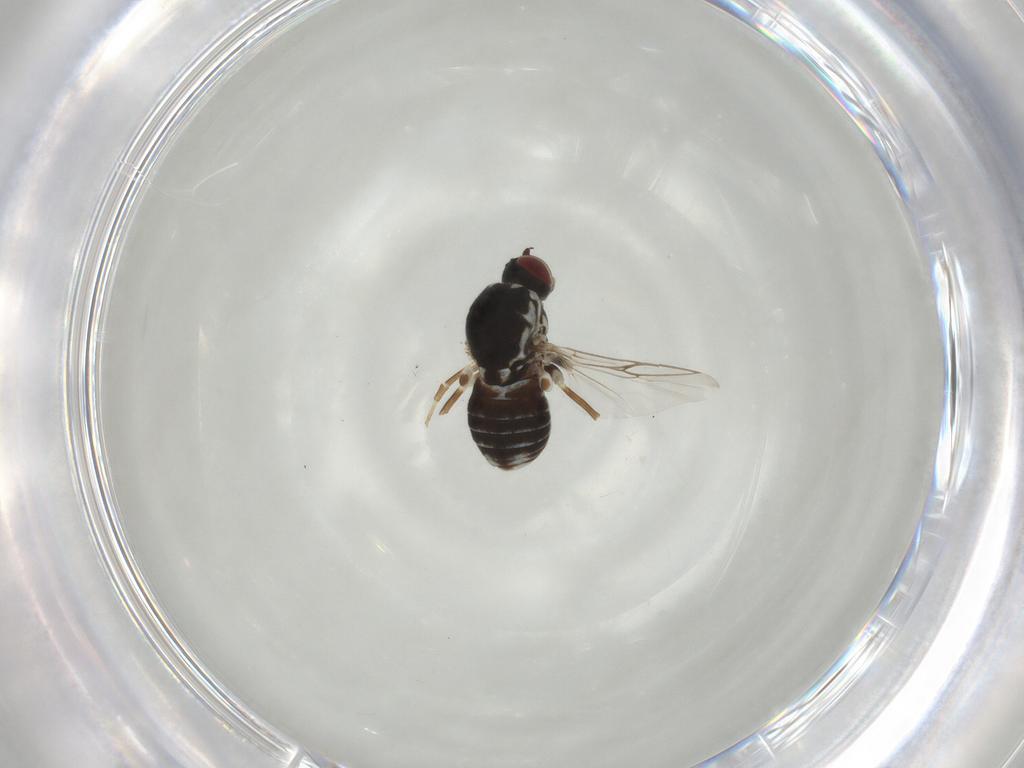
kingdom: Animalia
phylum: Arthropoda
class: Insecta
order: Diptera
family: Bombyliidae
